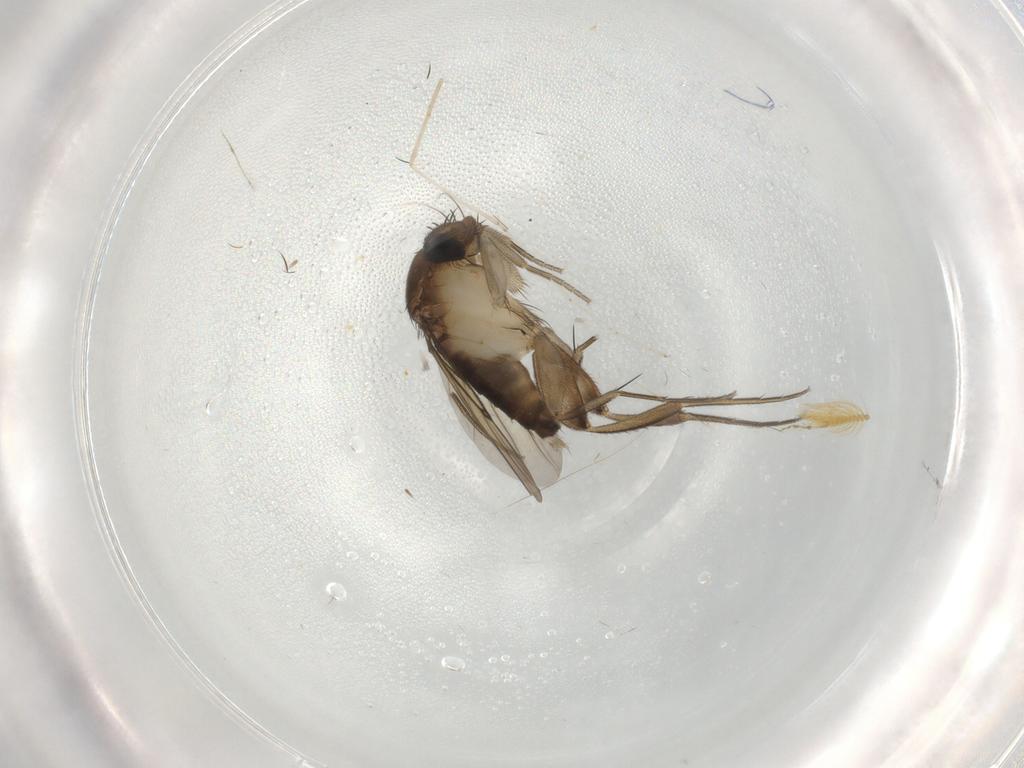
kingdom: Animalia
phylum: Arthropoda
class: Insecta
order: Diptera
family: Ceratopogonidae
